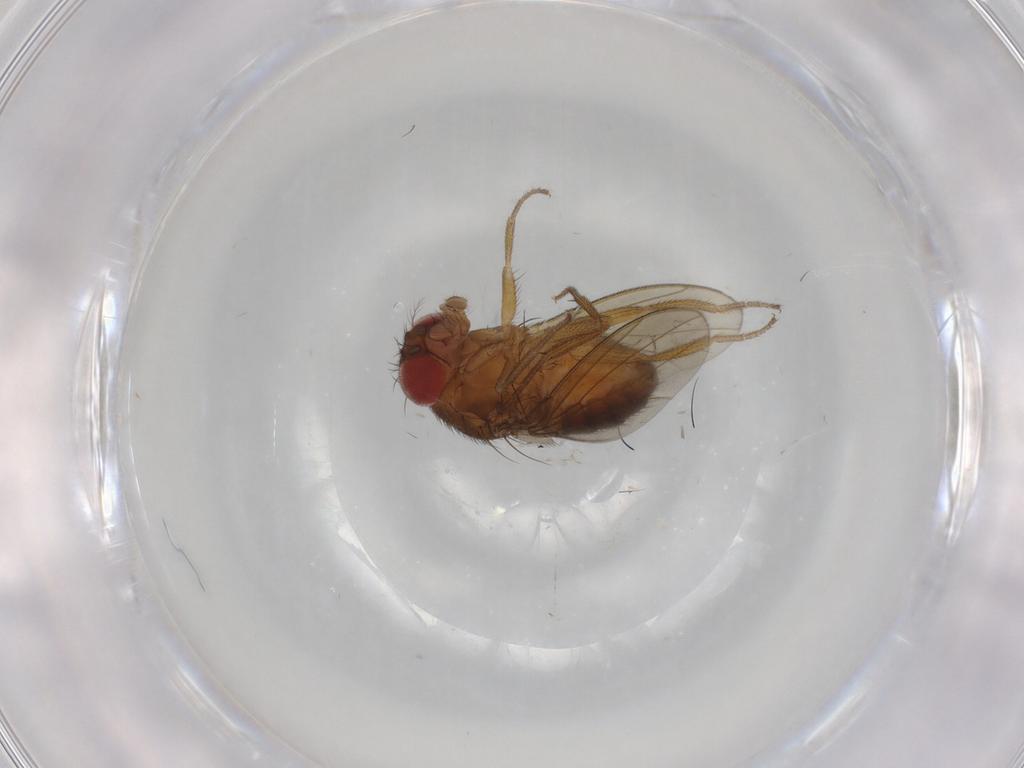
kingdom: Animalia
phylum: Arthropoda
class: Insecta
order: Diptera
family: Drosophilidae
